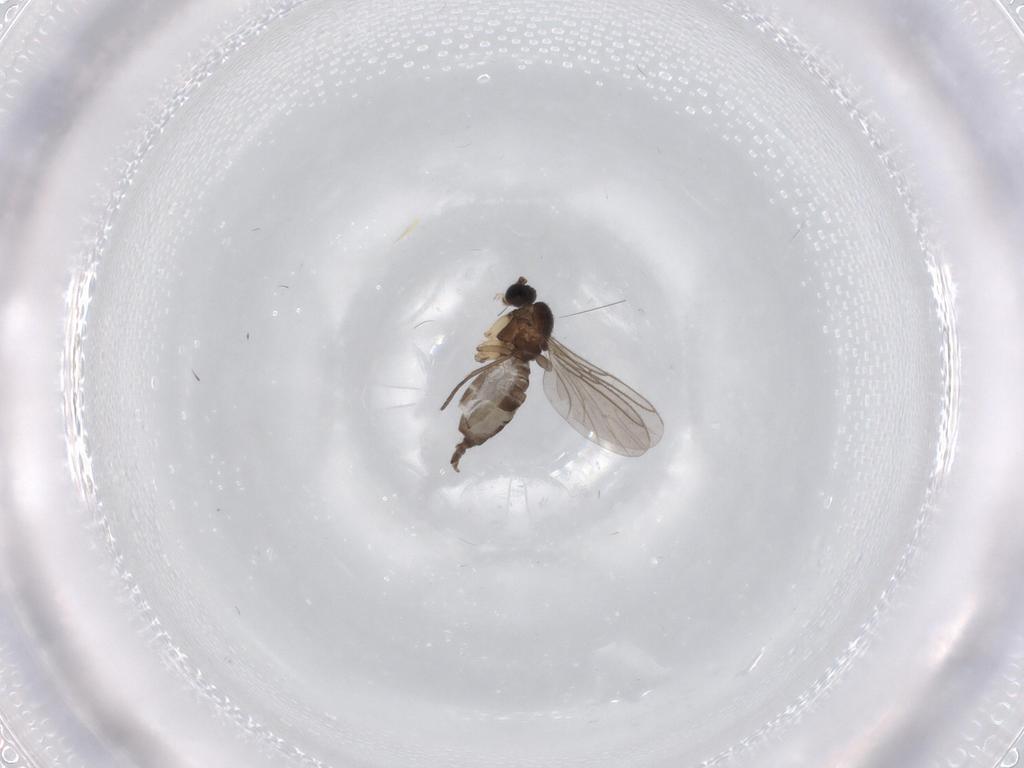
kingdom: Animalia
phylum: Arthropoda
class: Insecta
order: Diptera
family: Sciaridae
